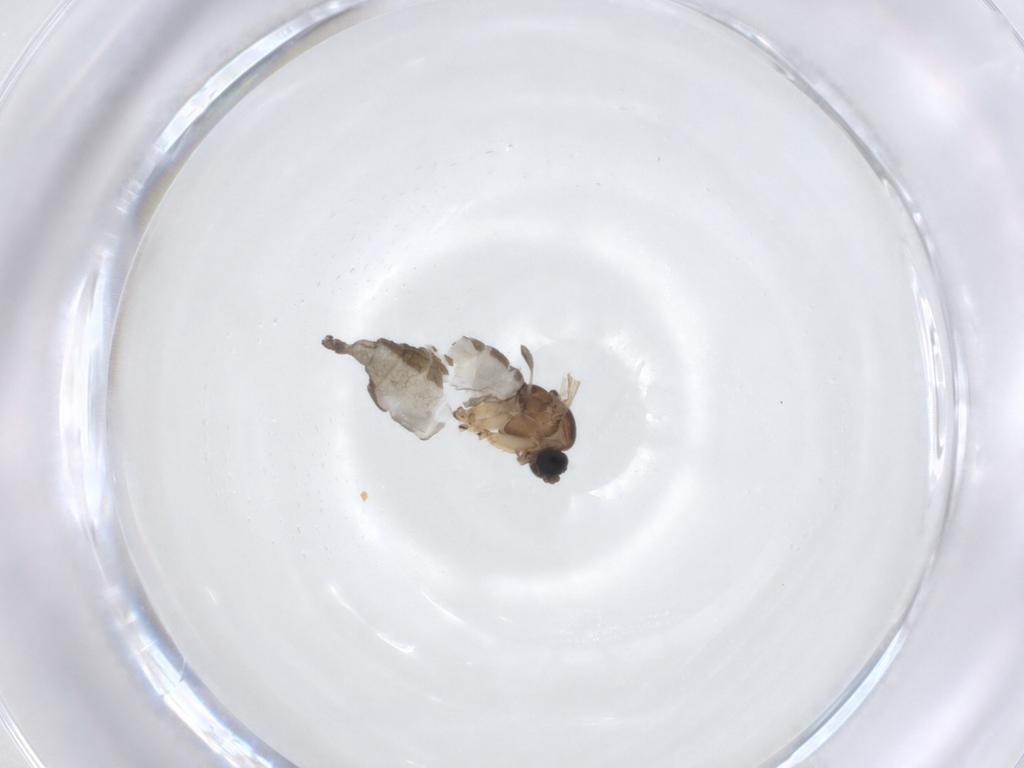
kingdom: Animalia
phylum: Arthropoda
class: Insecta
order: Diptera
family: Sciaridae
